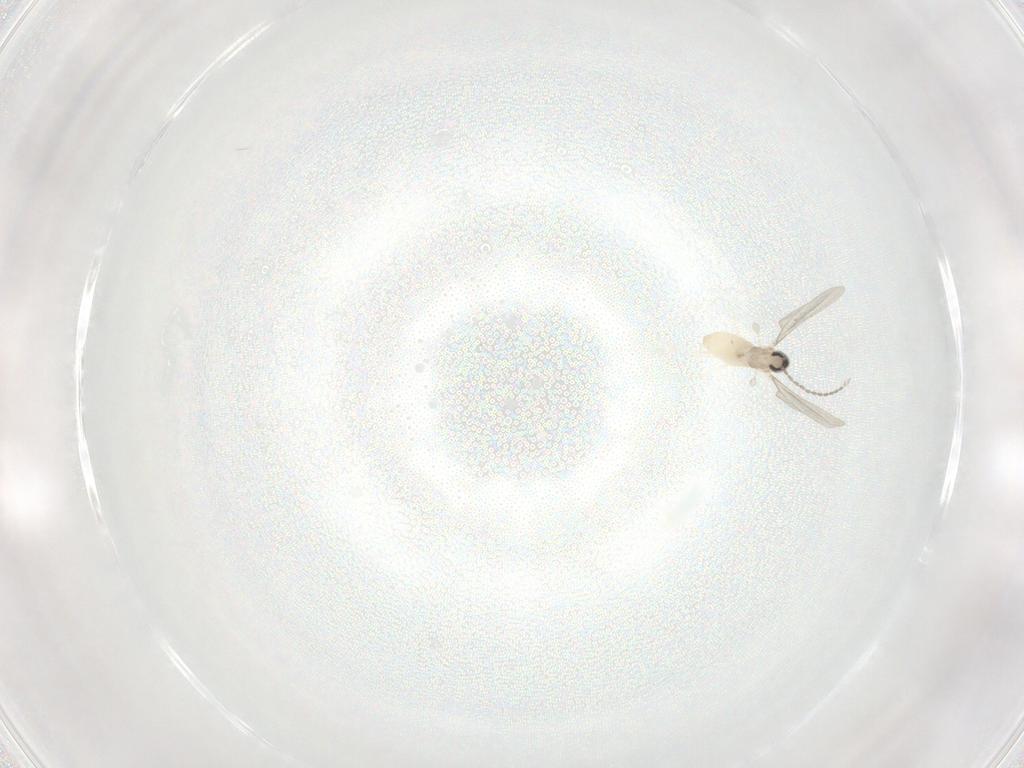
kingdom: Animalia
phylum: Arthropoda
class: Insecta
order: Diptera
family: Cecidomyiidae
